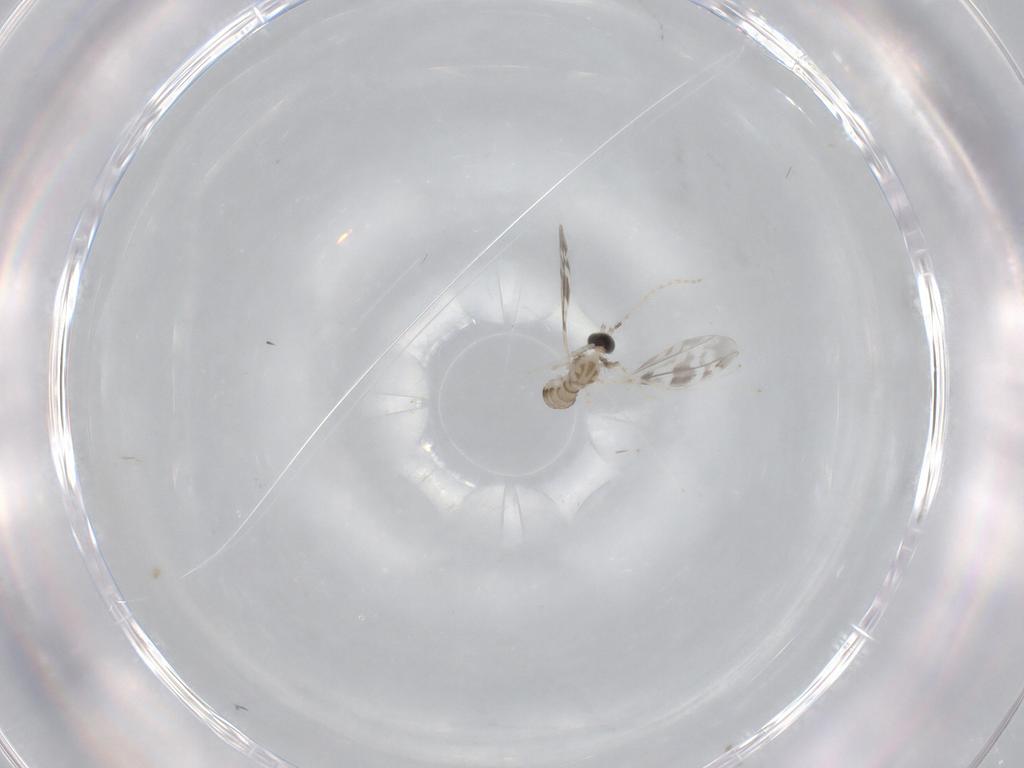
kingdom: Animalia
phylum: Arthropoda
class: Insecta
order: Diptera
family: Cecidomyiidae
